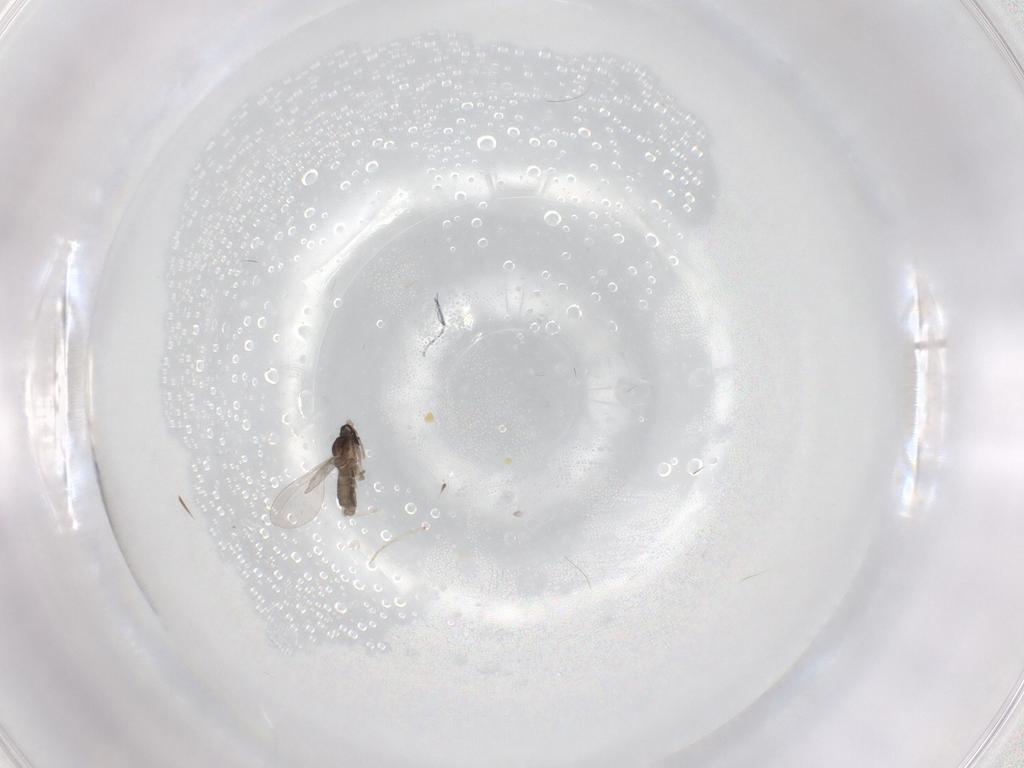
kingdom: Animalia
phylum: Arthropoda
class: Insecta
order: Diptera
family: Cecidomyiidae
